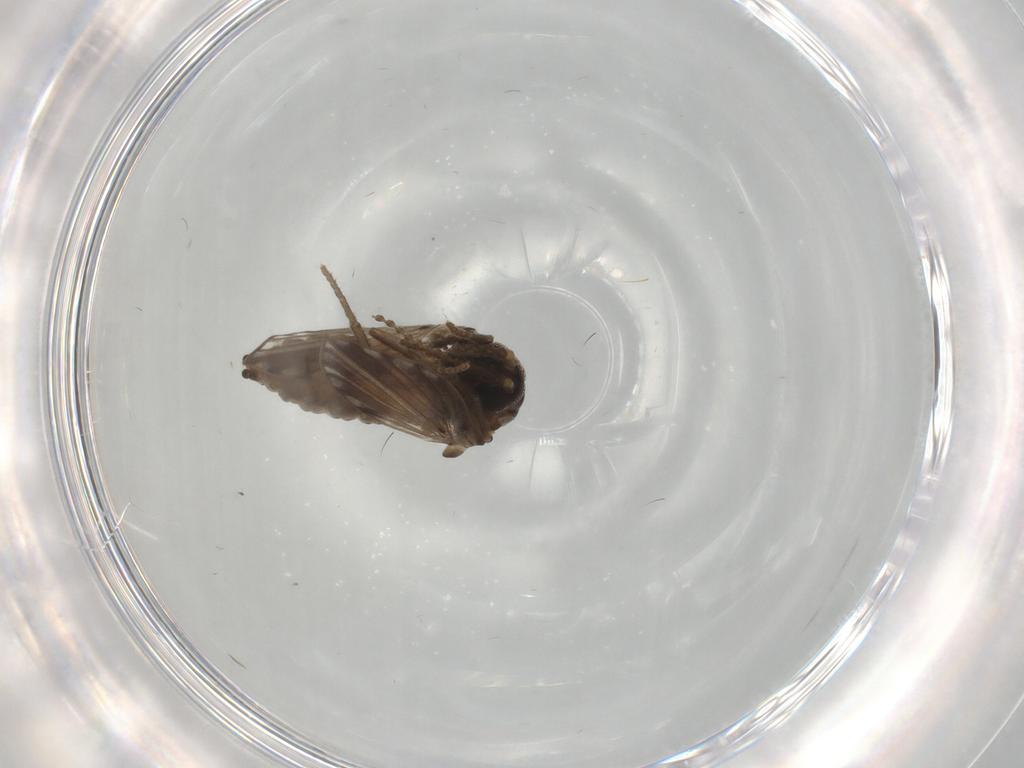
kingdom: Animalia
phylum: Arthropoda
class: Insecta
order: Diptera
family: Psychodidae
